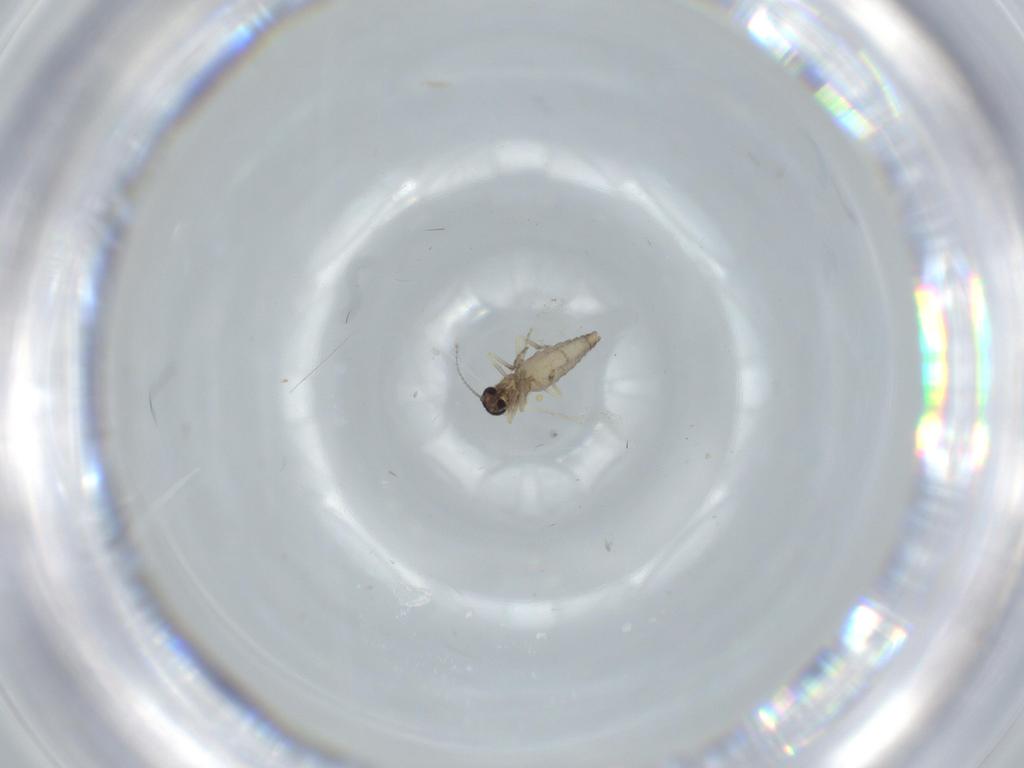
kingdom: Animalia
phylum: Arthropoda
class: Insecta
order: Diptera
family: Ceratopogonidae
